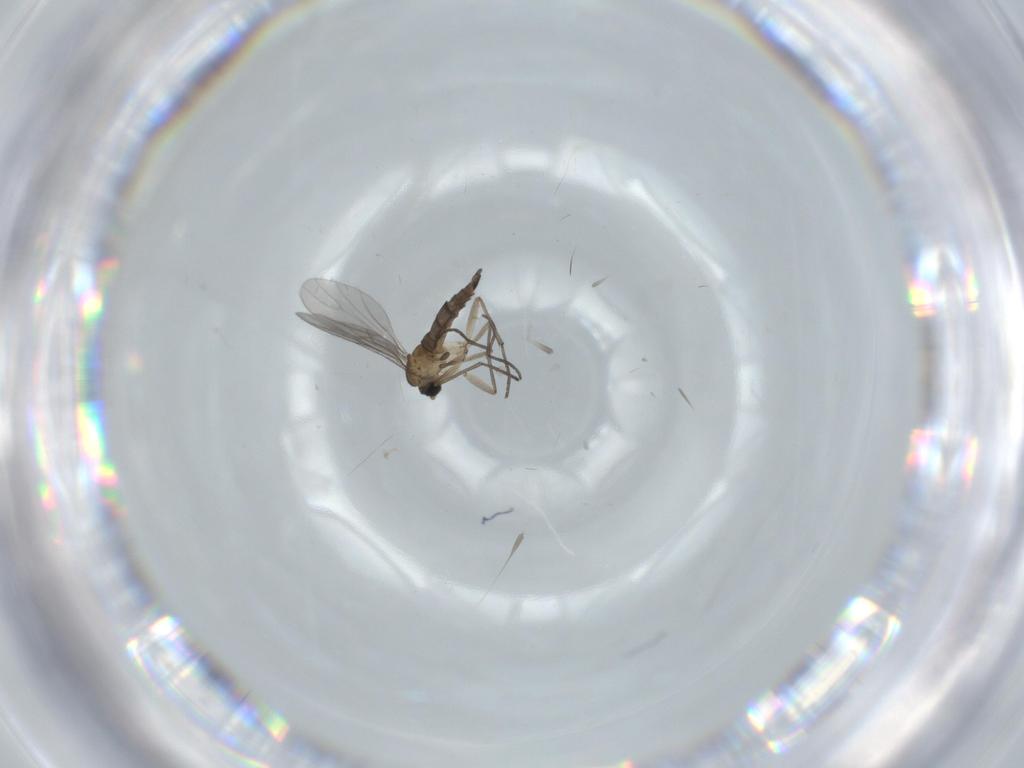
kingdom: Animalia
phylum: Arthropoda
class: Insecta
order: Diptera
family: Sciaridae
